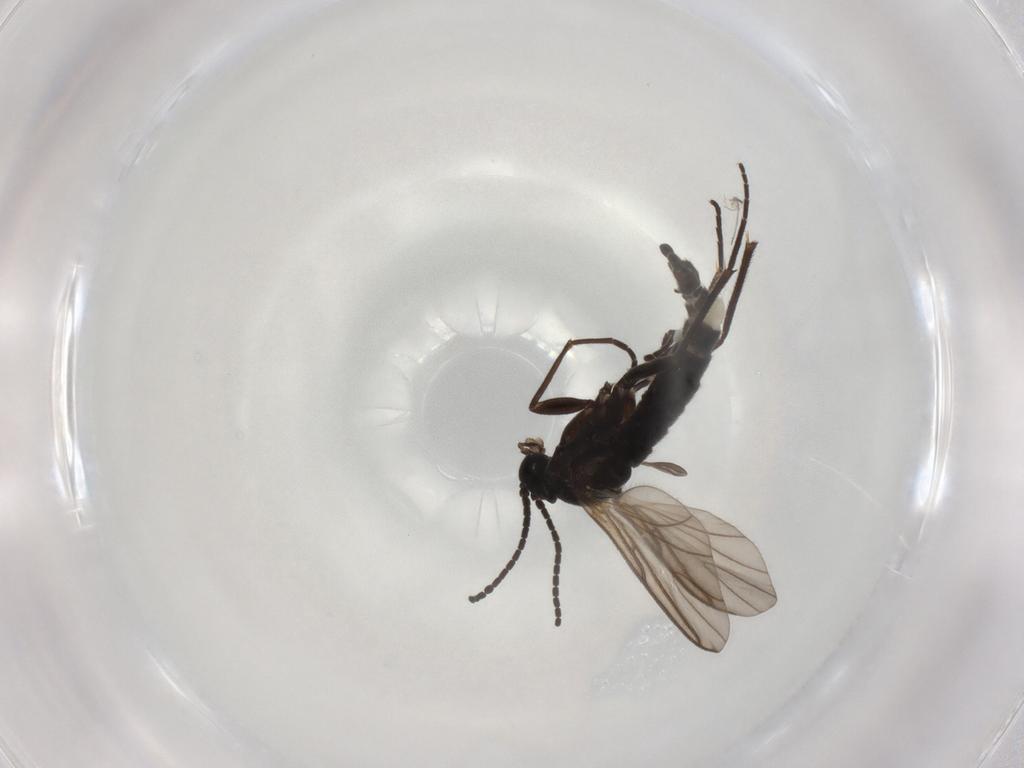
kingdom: Animalia
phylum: Arthropoda
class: Insecta
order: Diptera
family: Sciaridae
